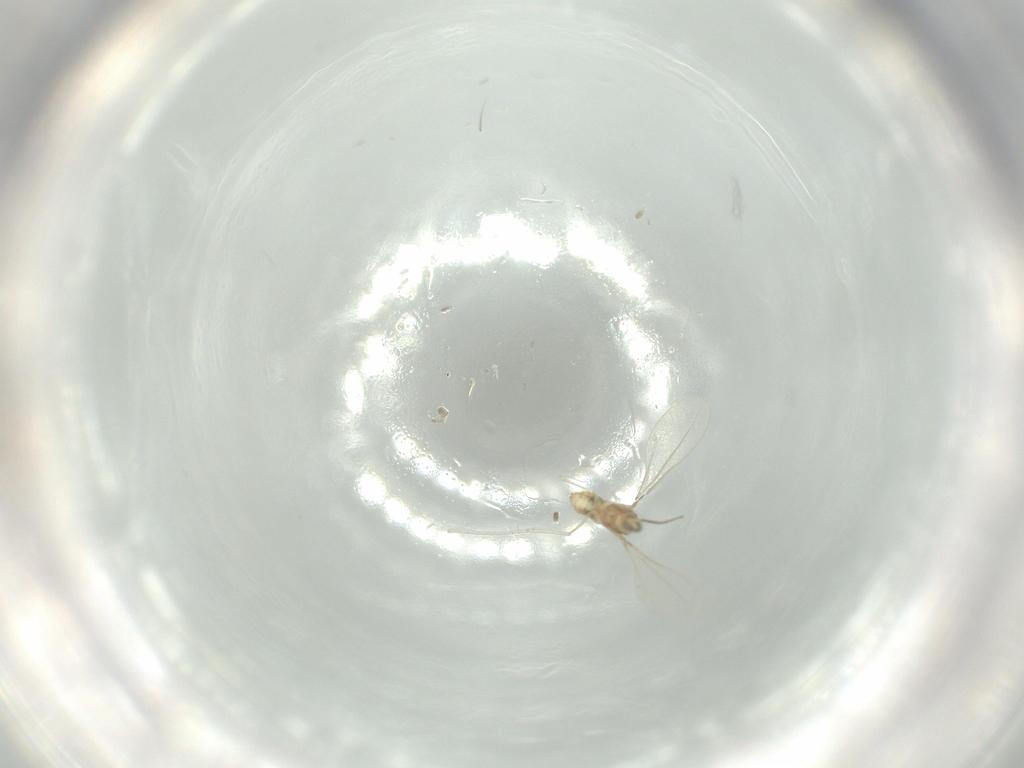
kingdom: Animalia
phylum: Arthropoda
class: Insecta
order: Diptera
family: Cecidomyiidae
